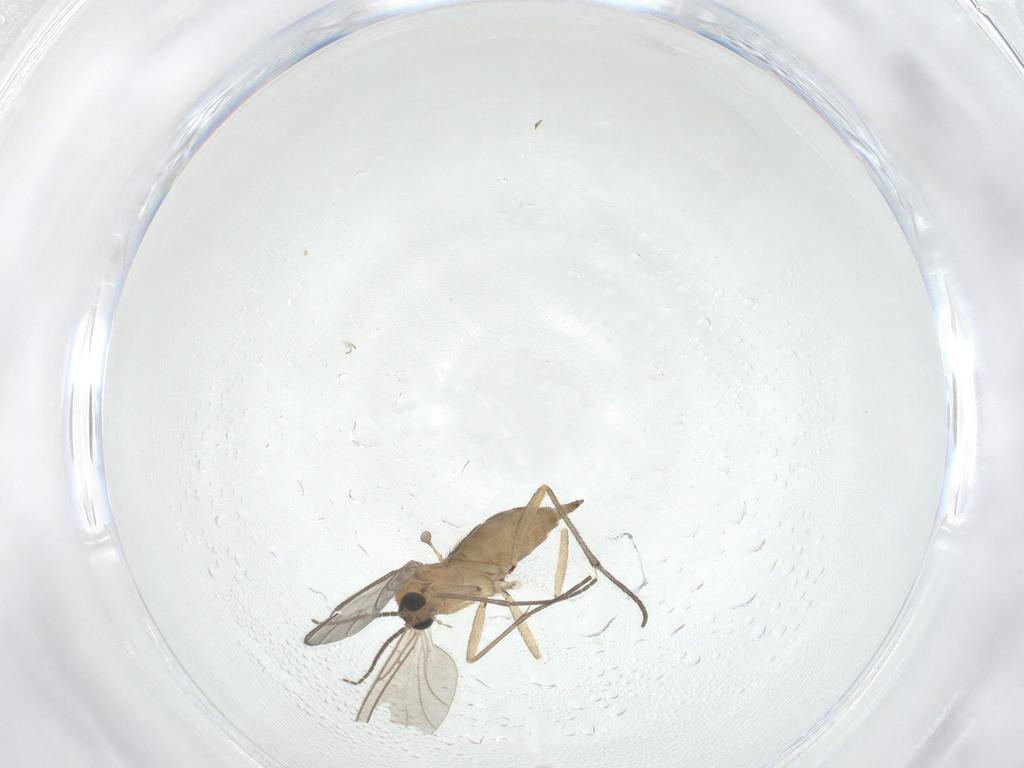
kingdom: Animalia
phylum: Arthropoda
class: Insecta
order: Diptera
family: Sciaridae
